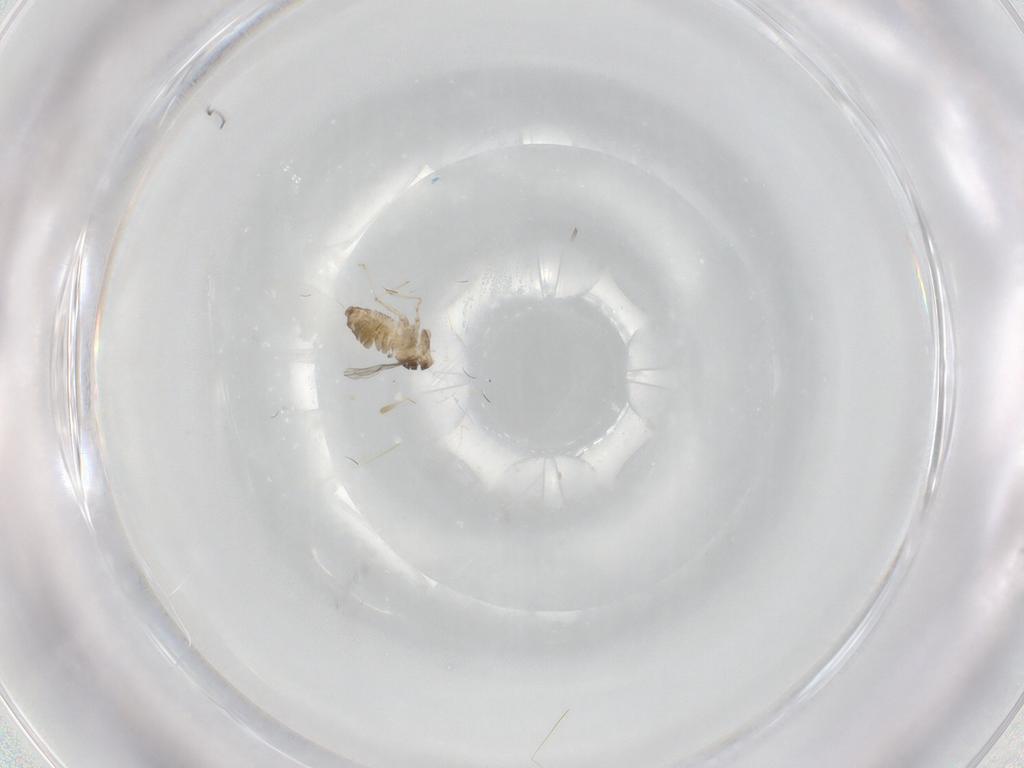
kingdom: Animalia
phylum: Arthropoda
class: Insecta
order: Diptera
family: Cecidomyiidae
